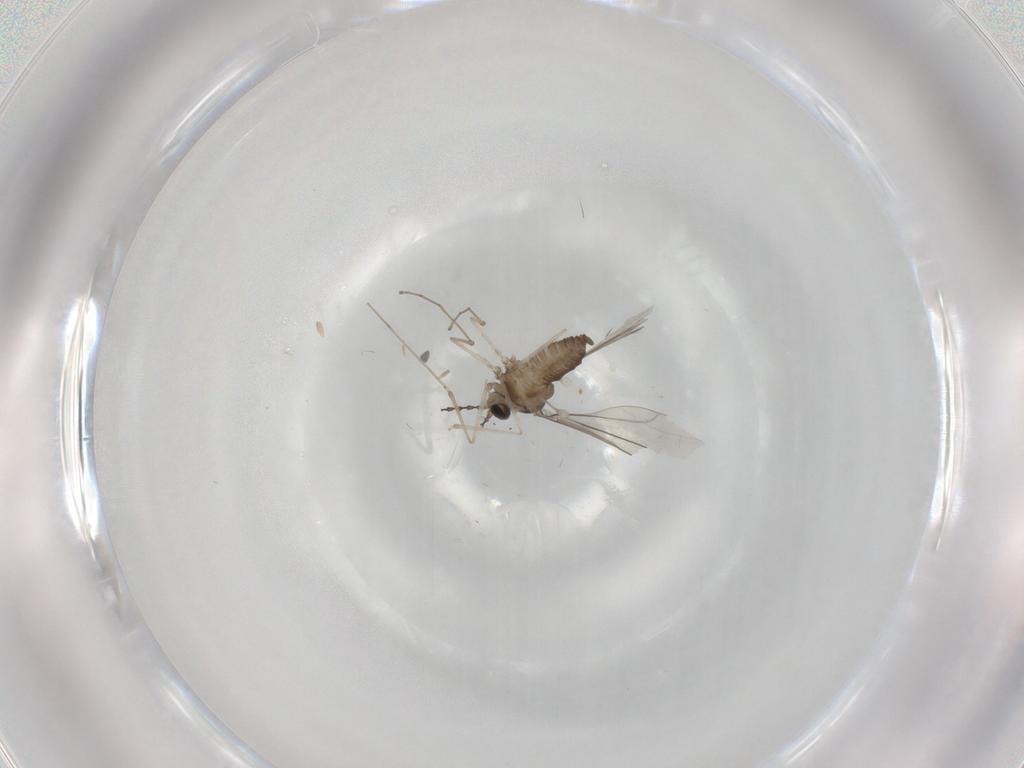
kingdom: Animalia
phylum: Arthropoda
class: Insecta
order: Diptera
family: Cecidomyiidae
